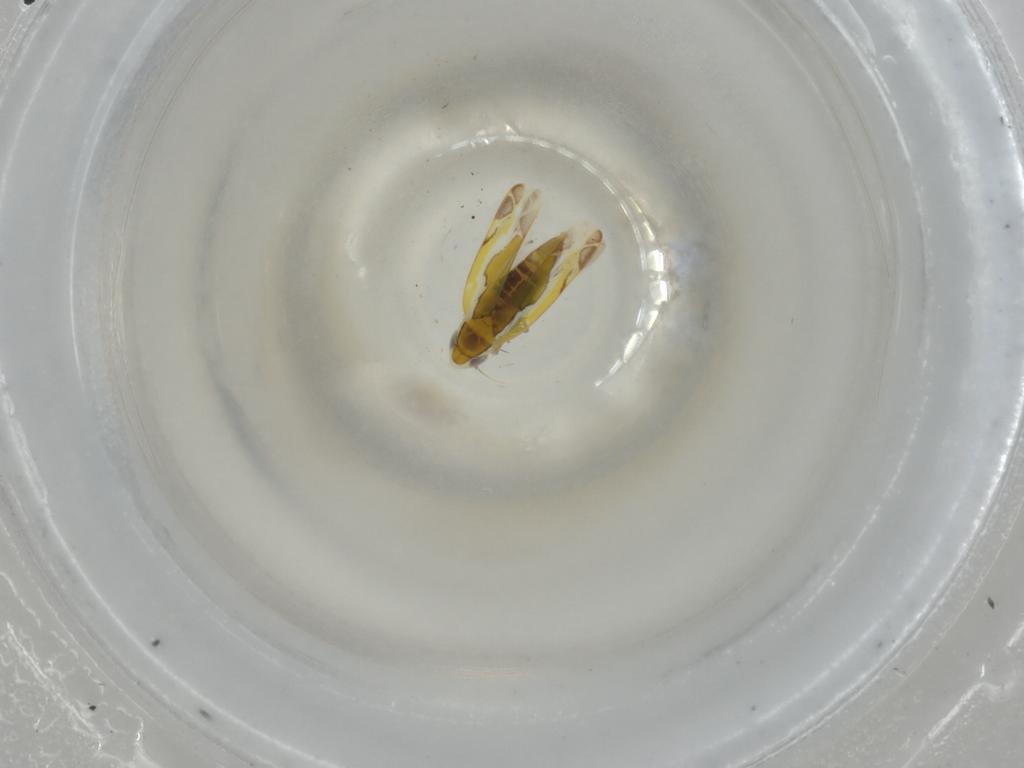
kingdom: Animalia
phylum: Arthropoda
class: Insecta
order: Hemiptera
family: Cicadellidae
